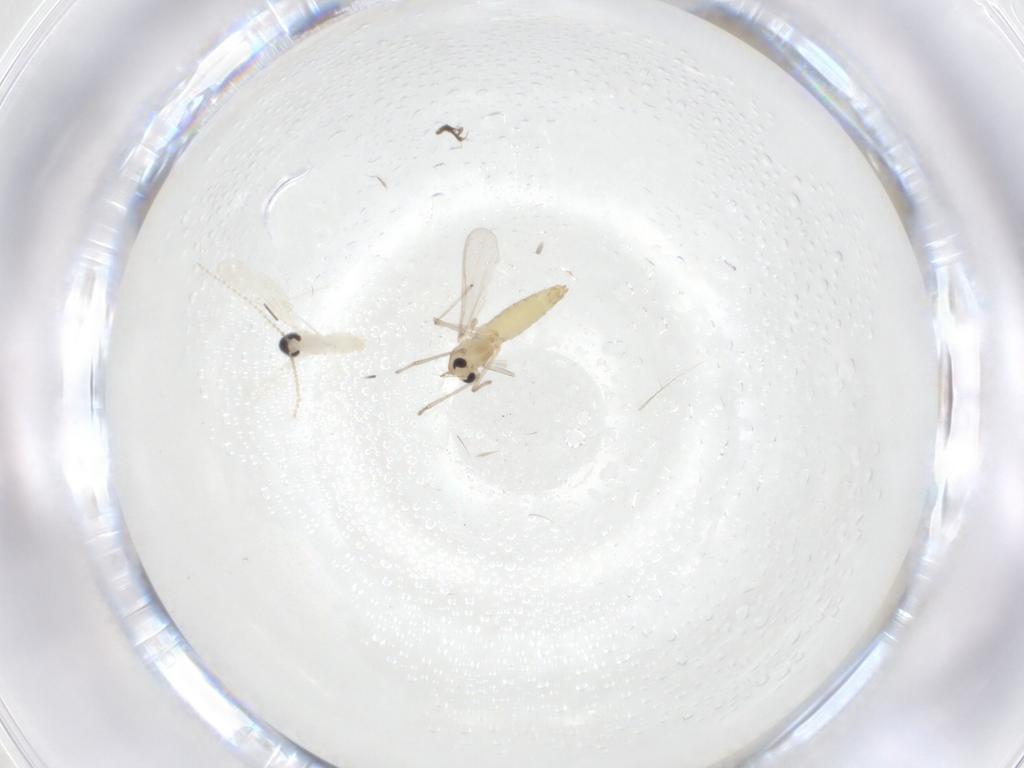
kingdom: Animalia
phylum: Arthropoda
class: Insecta
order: Diptera
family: Cecidomyiidae
